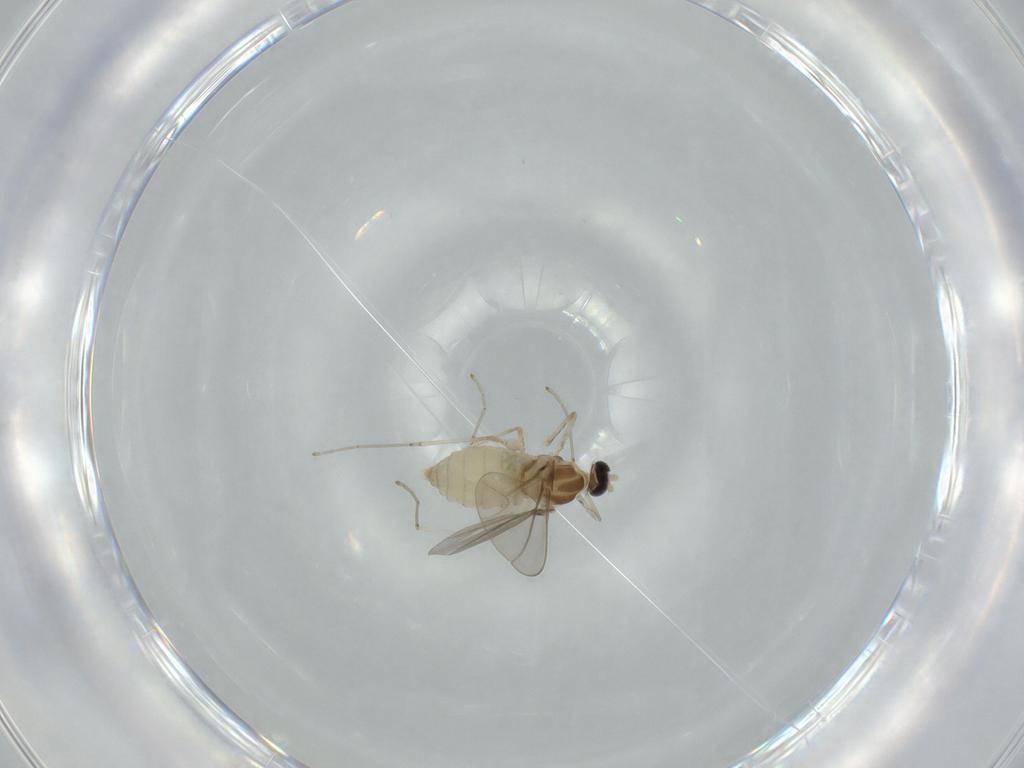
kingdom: Animalia
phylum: Arthropoda
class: Insecta
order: Diptera
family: Cecidomyiidae
